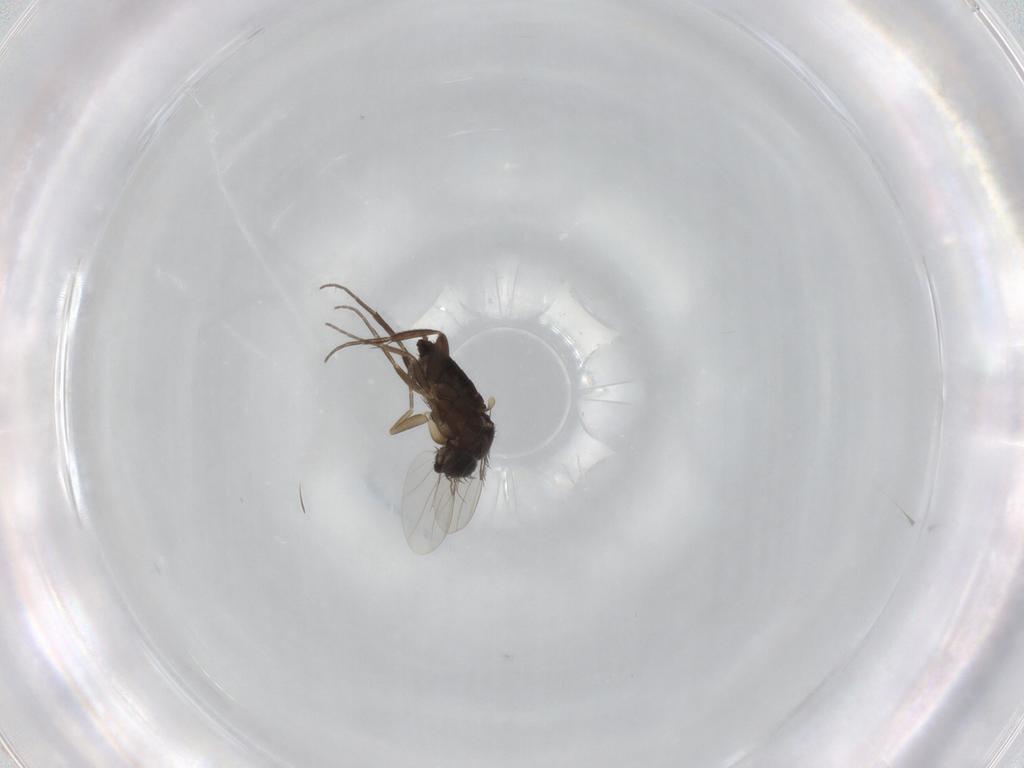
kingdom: Animalia
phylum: Arthropoda
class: Insecta
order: Diptera
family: Phoridae
